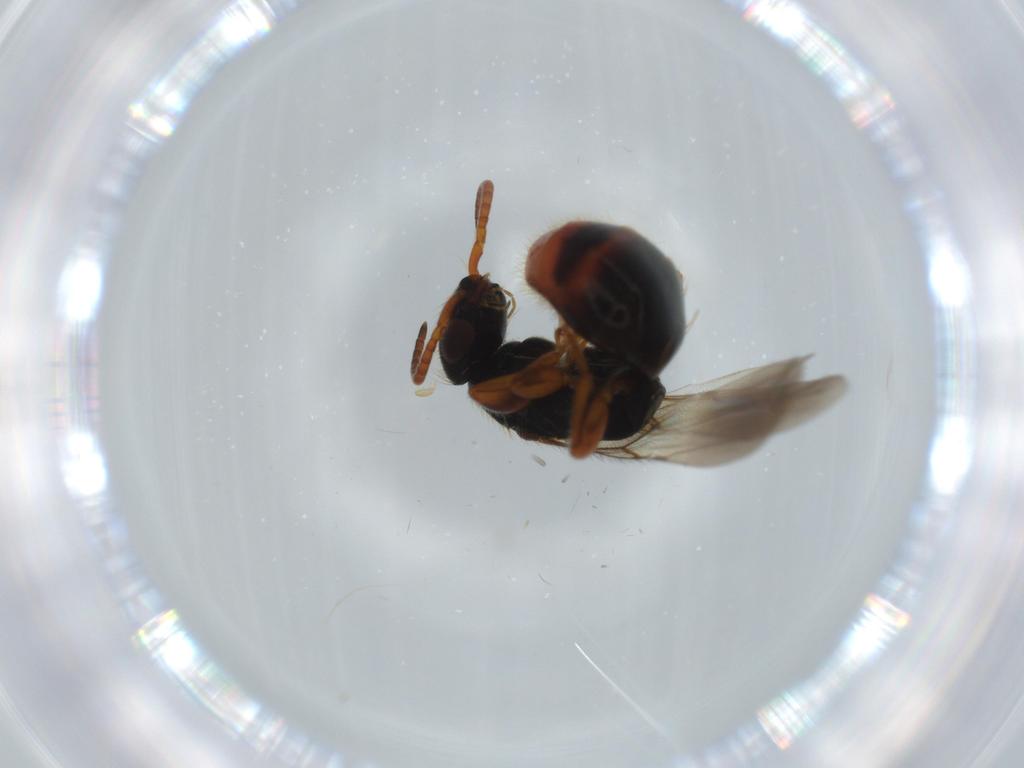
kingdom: Animalia
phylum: Arthropoda
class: Insecta
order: Hymenoptera
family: Bethylidae
